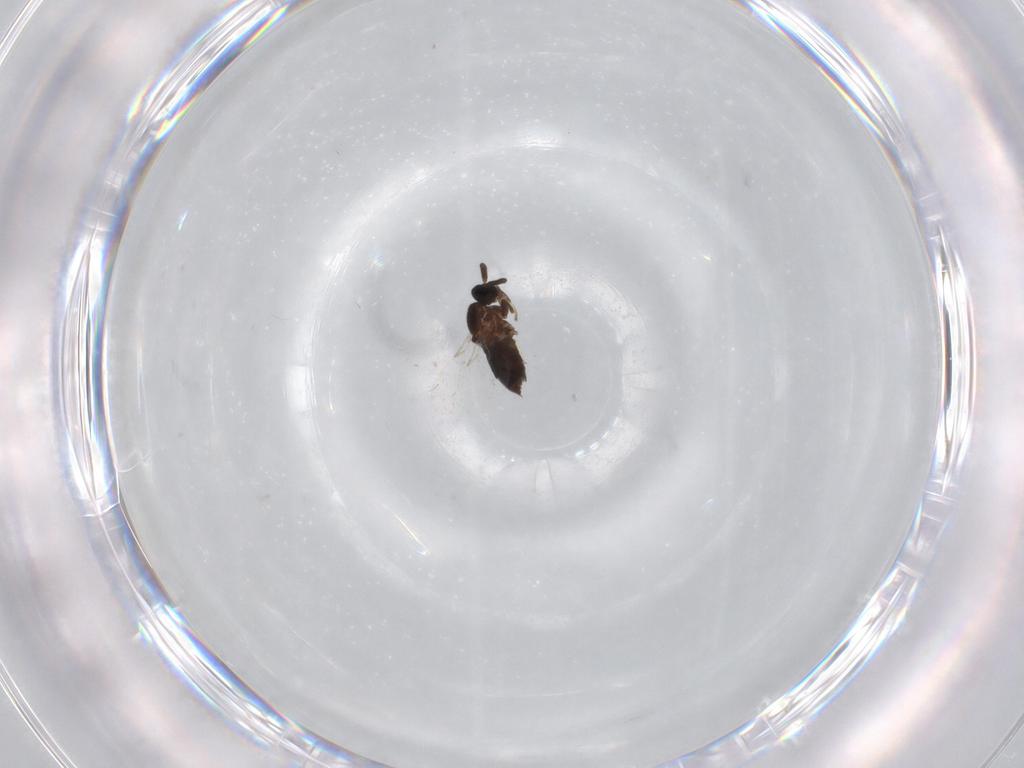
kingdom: Animalia
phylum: Arthropoda
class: Insecta
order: Diptera
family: Scatopsidae
